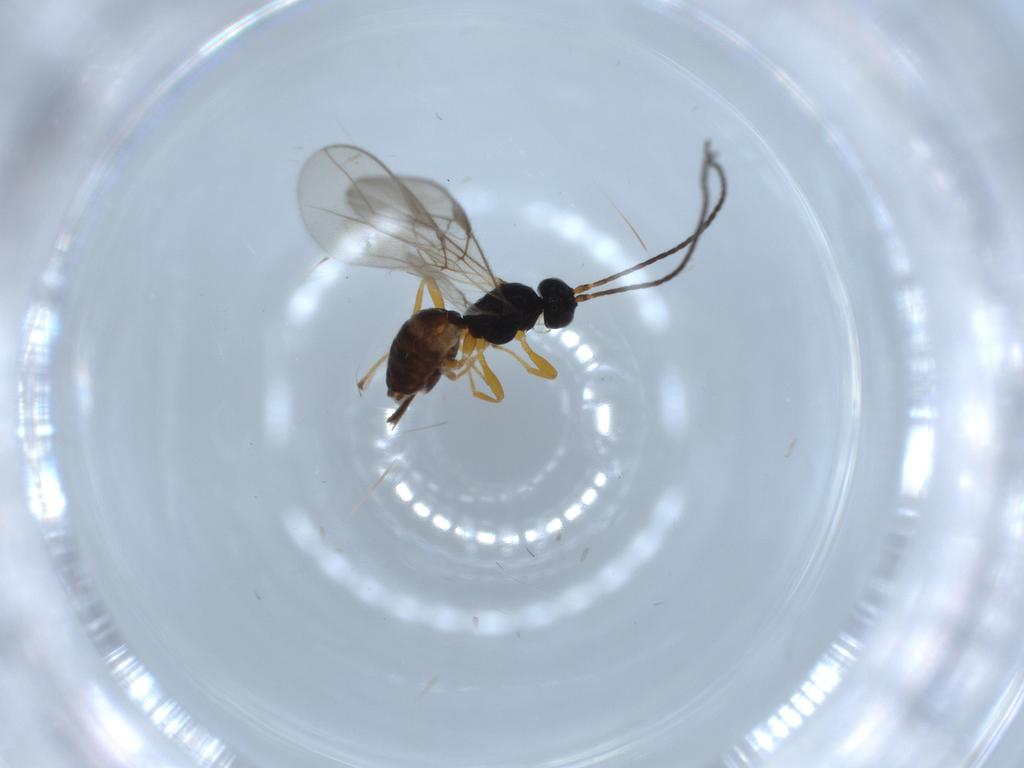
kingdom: Animalia
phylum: Arthropoda
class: Insecta
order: Hymenoptera
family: Braconidae
